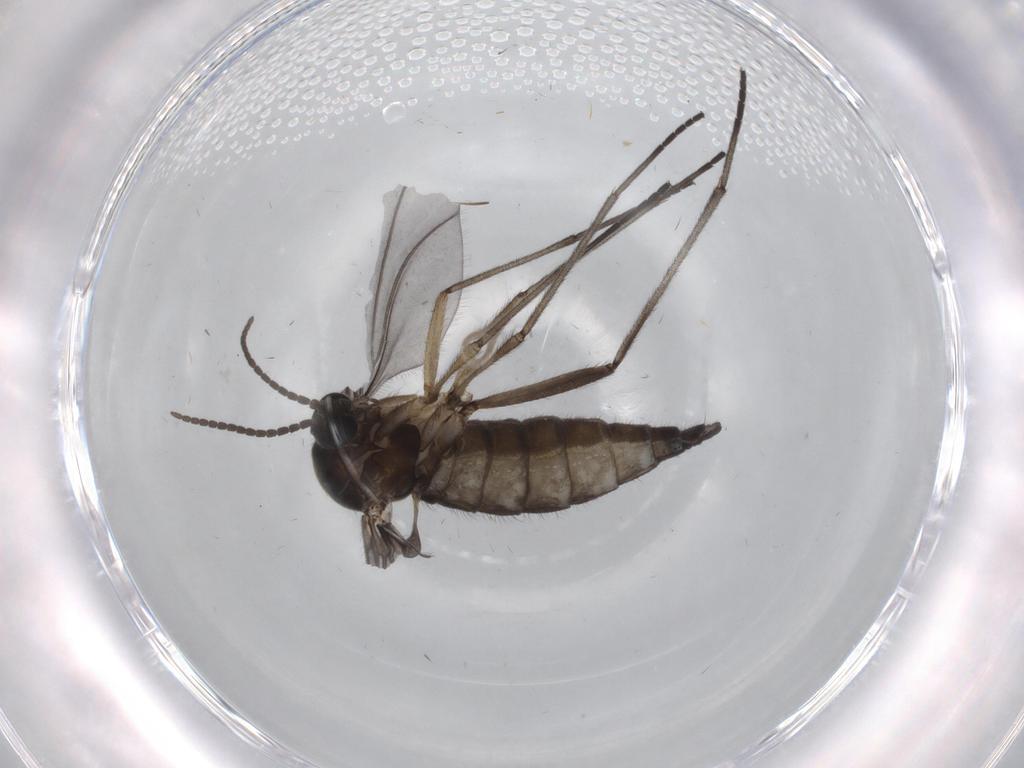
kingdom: Animalia
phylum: Arthropoda
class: Insecta
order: Diptera
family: Sciaridae
